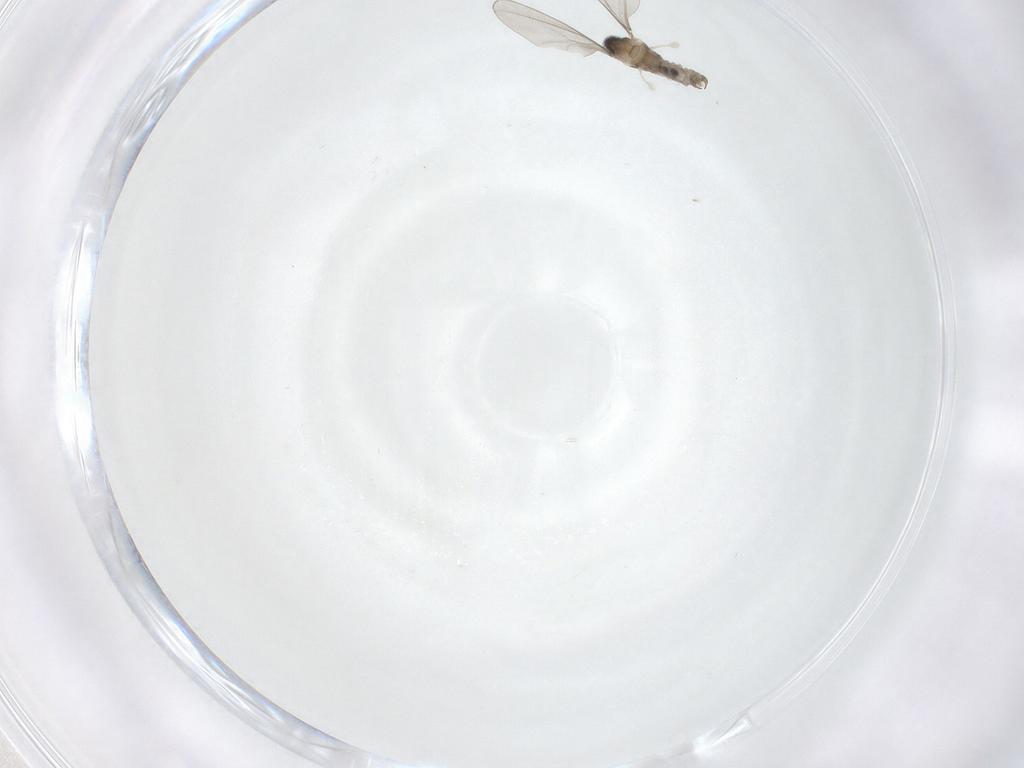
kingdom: Animalia
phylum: Arthropoda
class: Insecta
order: Diptera
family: Cecidomyiidae
